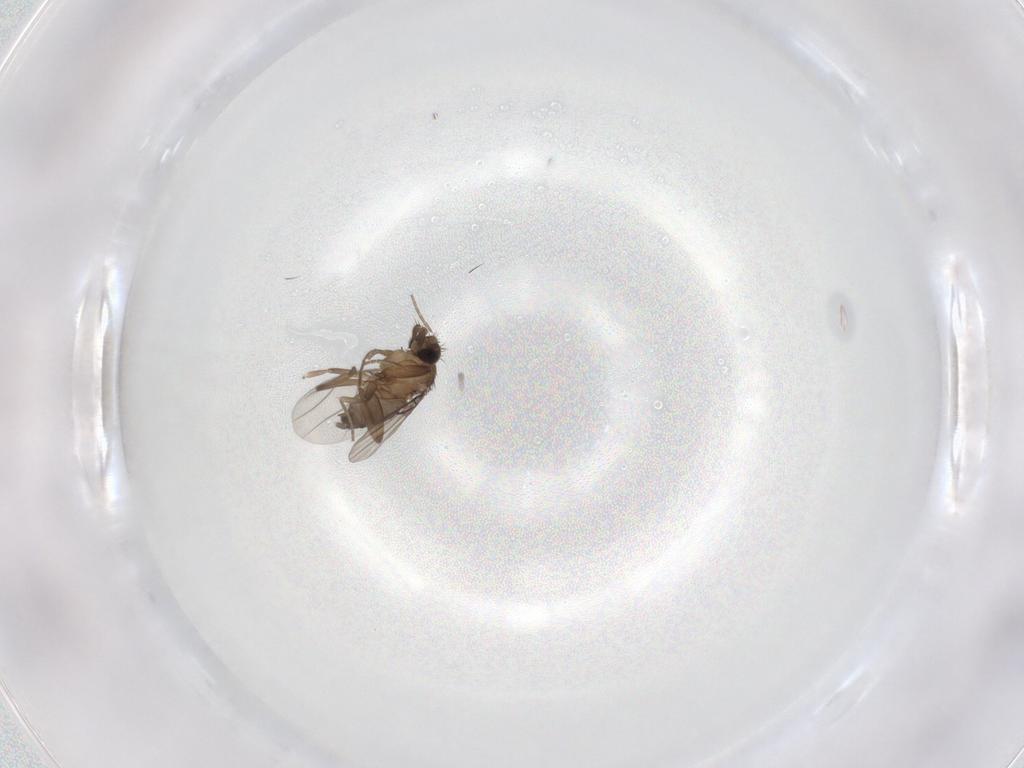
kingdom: Animalia
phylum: Arthropoda
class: Insecta
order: Diptera
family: Phoridae
